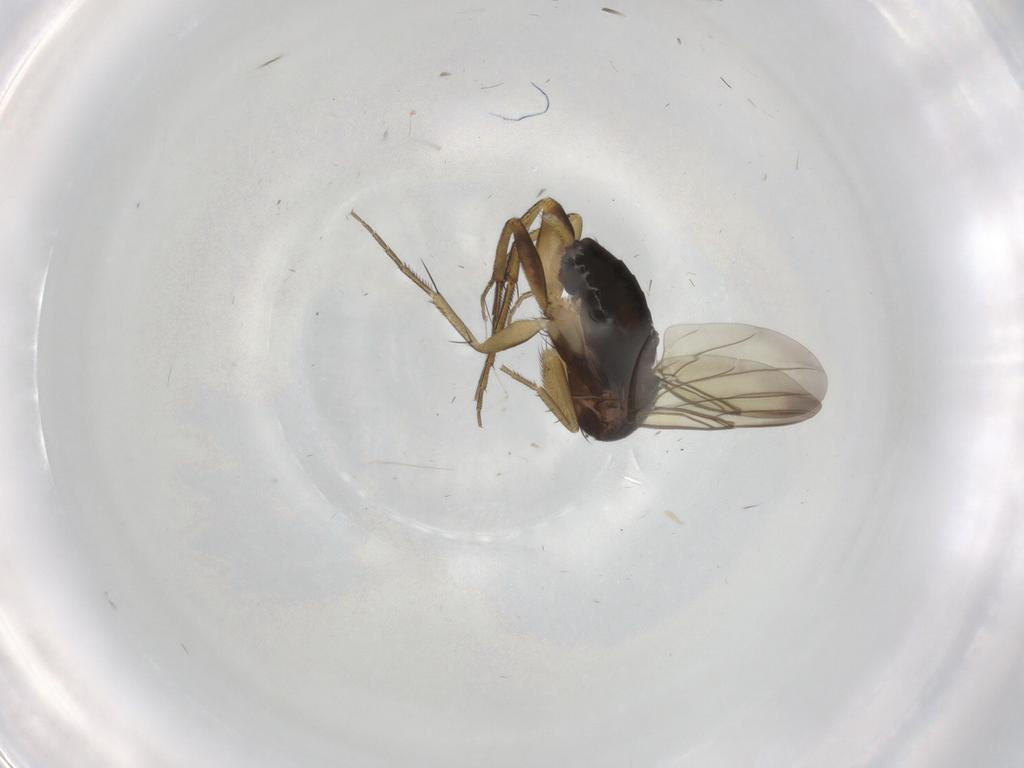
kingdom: Animalia
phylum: Arthropoda
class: Insecta
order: Diptera
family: Phoridae
